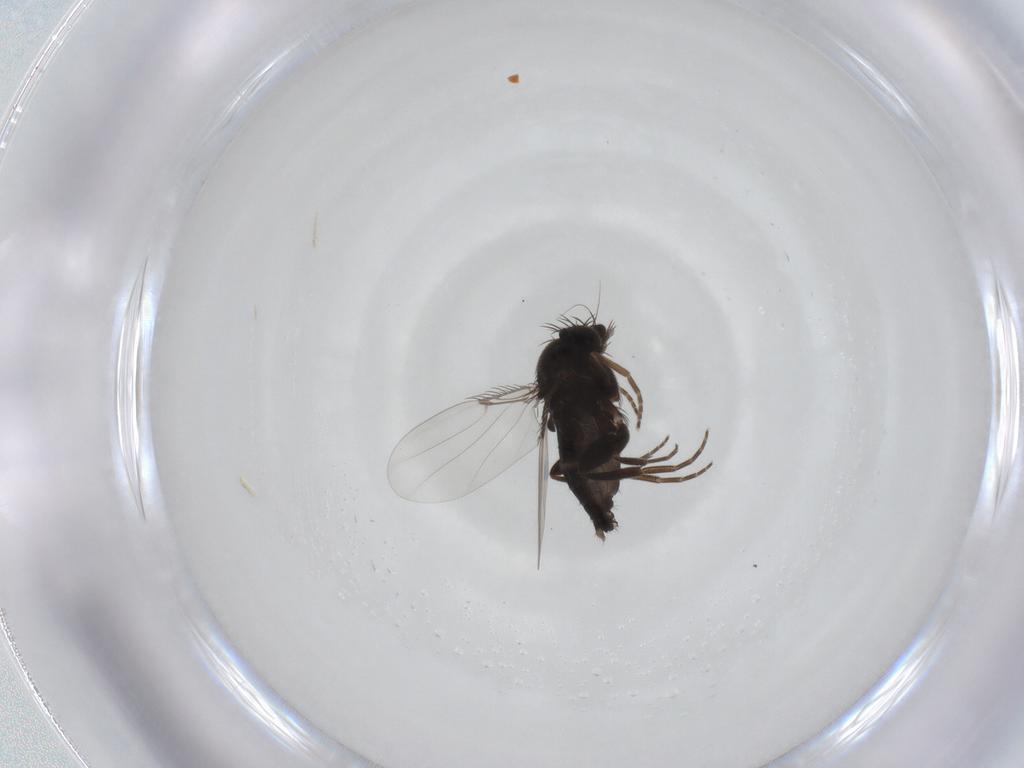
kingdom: Animalia
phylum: Arthropoda
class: Insecta
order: Diptera
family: Phoridae
